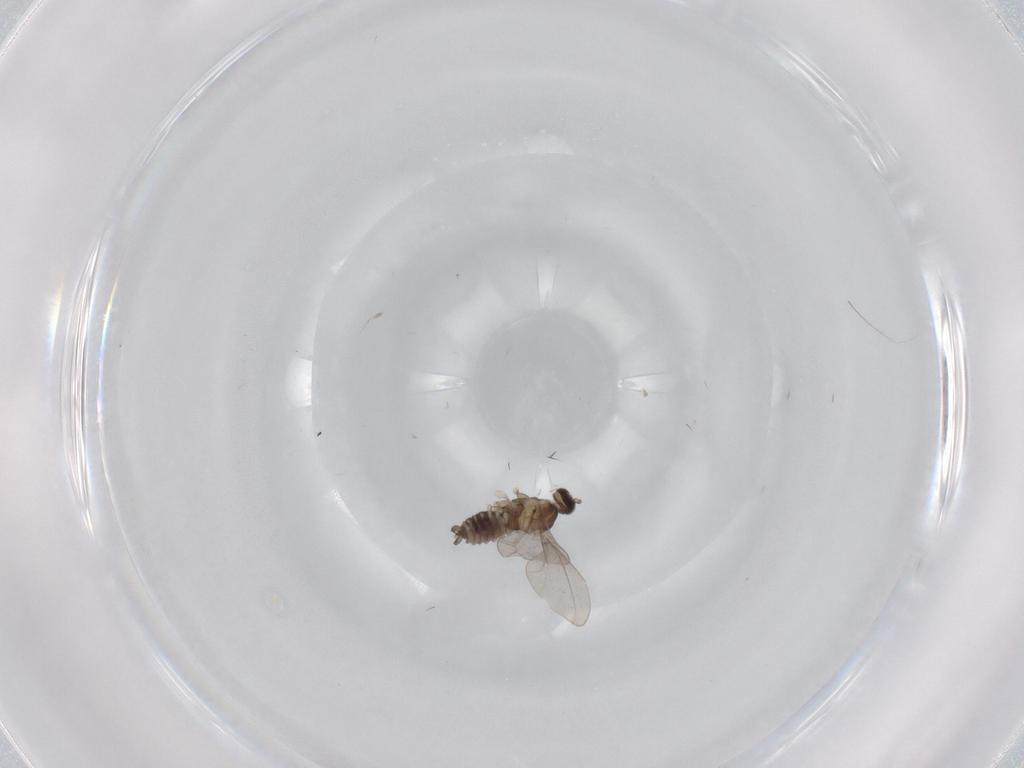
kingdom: Animalia
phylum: Arthropoda
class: Insecta
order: Diptera
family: Cecidomyiidae
